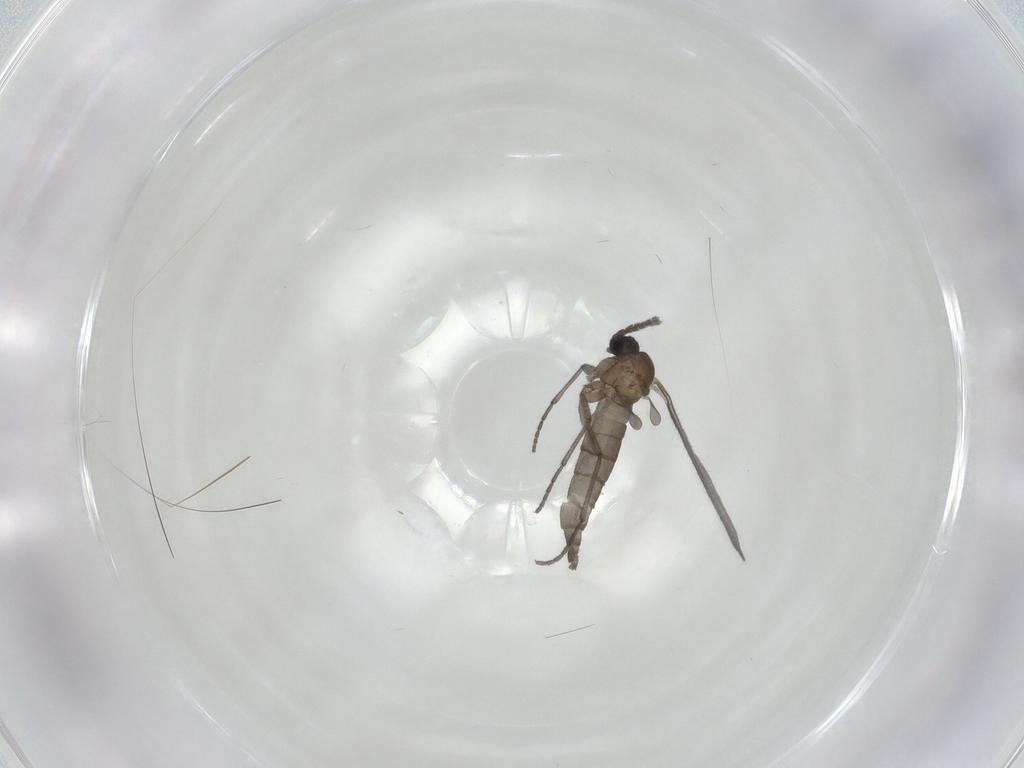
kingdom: Animalia
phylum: Arthropoda
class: Insecta
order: Diptera
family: Sciaridae
